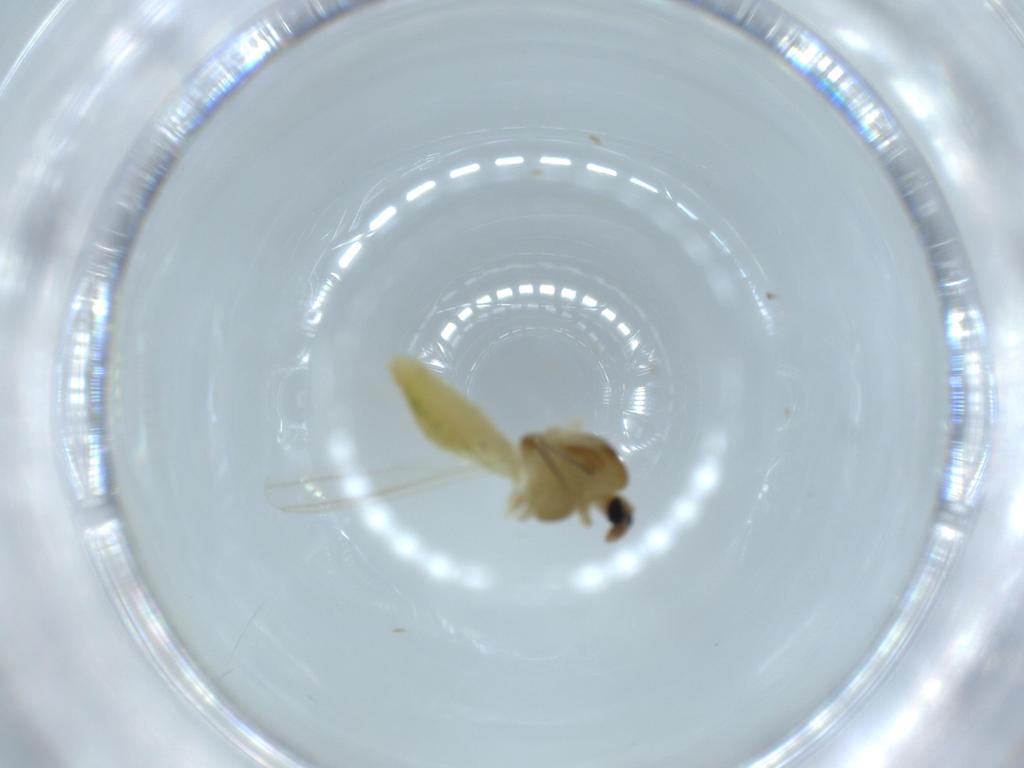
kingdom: Animalia
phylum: Arthropoda
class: Insecta
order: Diptera
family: Chironomidae
